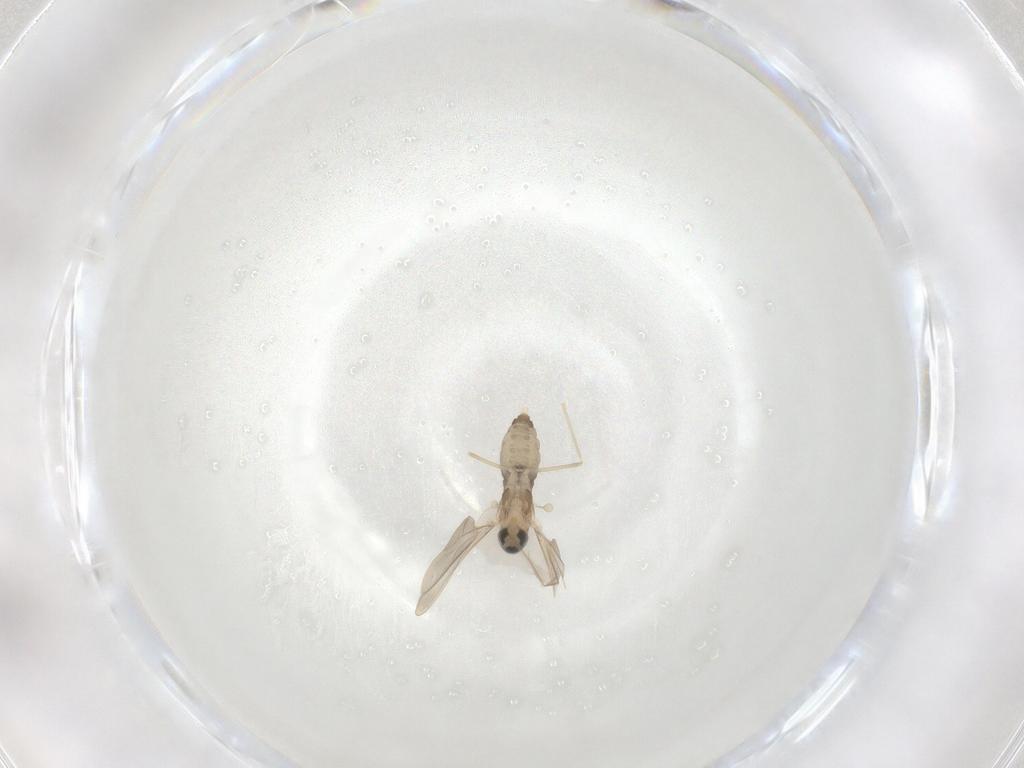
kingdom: Animalia
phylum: Arthropoda
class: Insecta
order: Diptera
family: Cecidomyiidae
